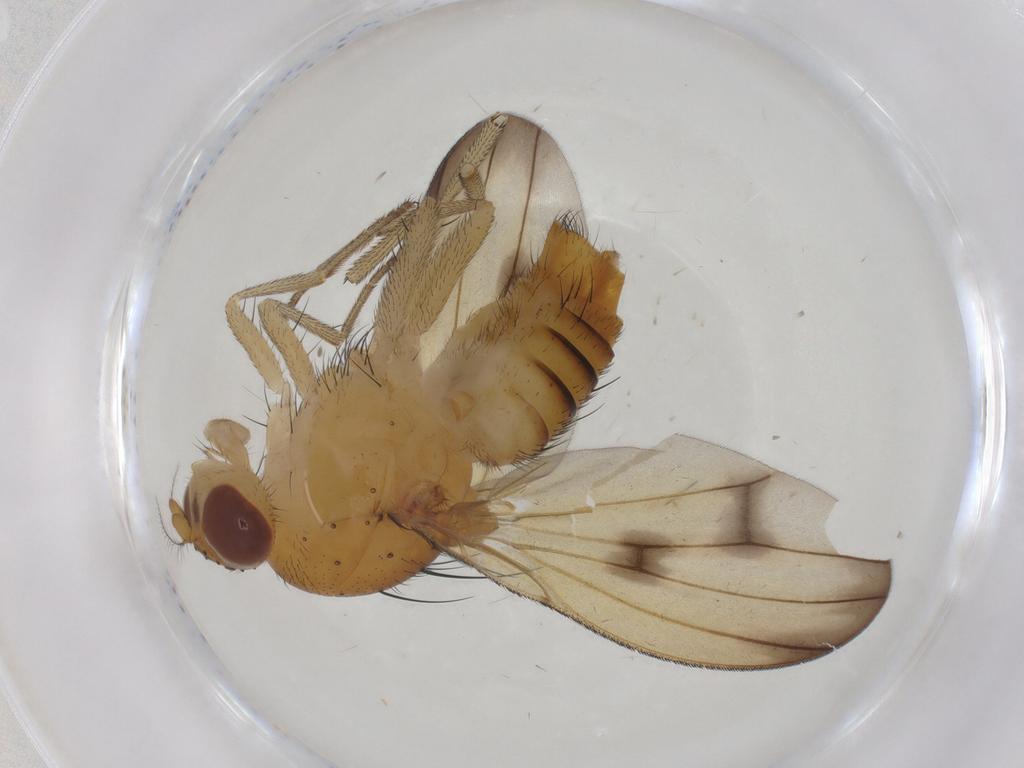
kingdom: Animalia
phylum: Arthropoda
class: Insecta
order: Diptera
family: Lauxaniidae
